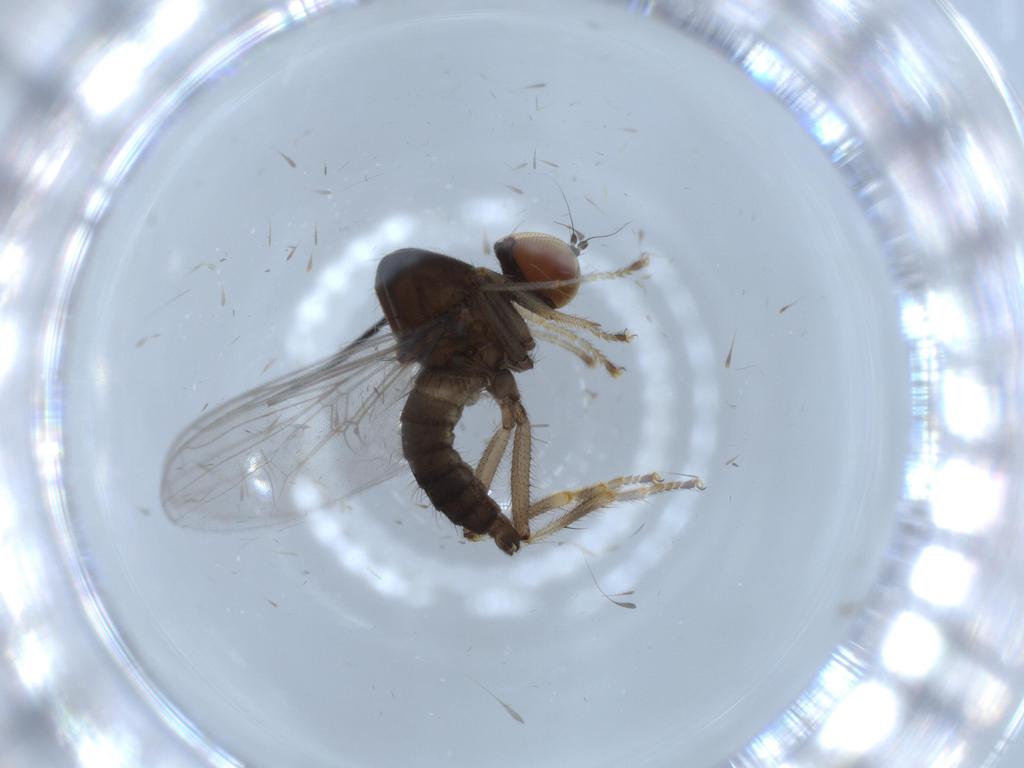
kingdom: Animalia
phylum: Arthropoda
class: Insecta
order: Diptera
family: Hybotidae
